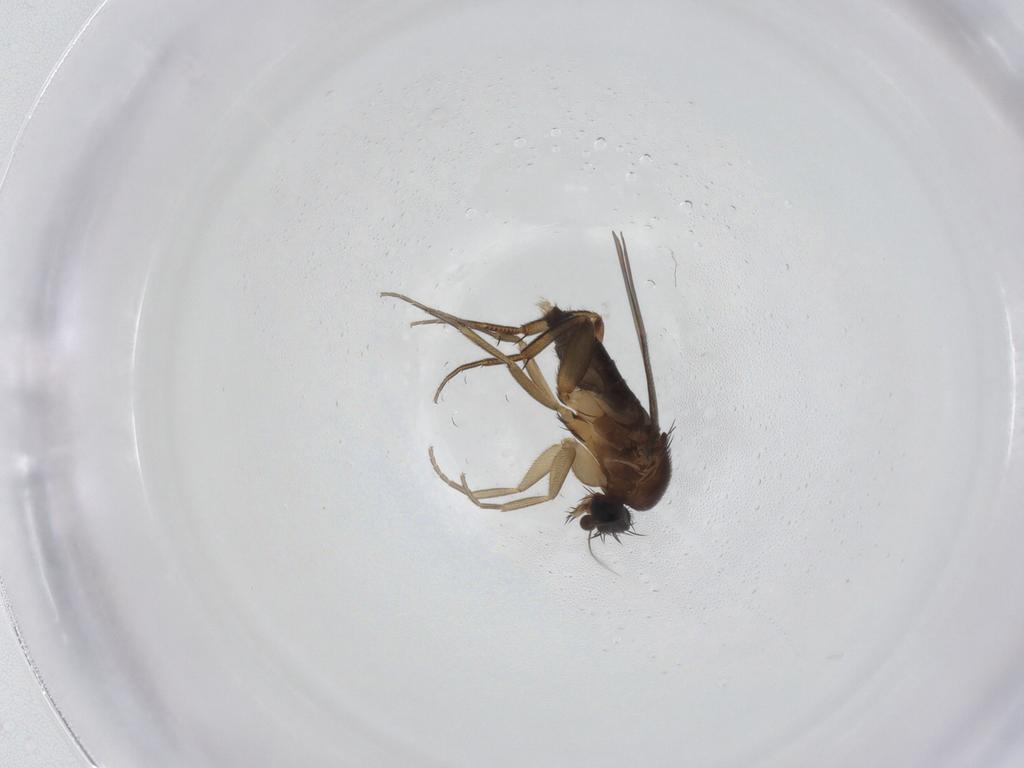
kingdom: Animalia
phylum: Arthropoda
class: Insecta
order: Diptera
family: Phoridae
